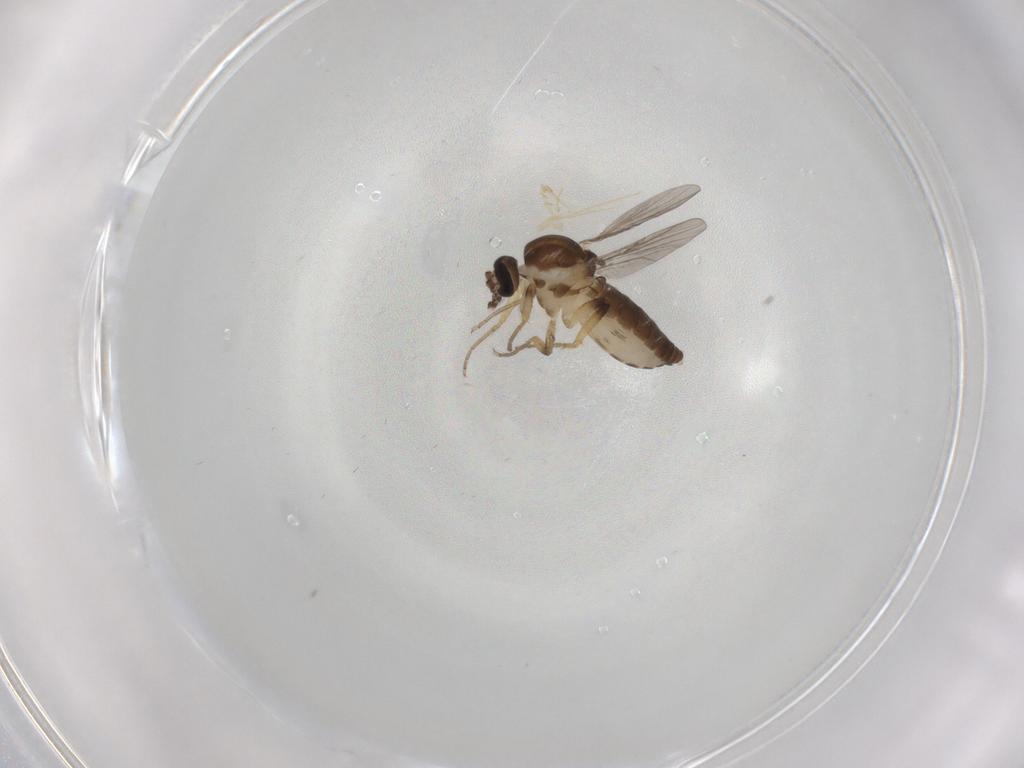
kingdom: Animalia
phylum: Arthropoda
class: Insecta
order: Diptera
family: Ceratopogonidae
